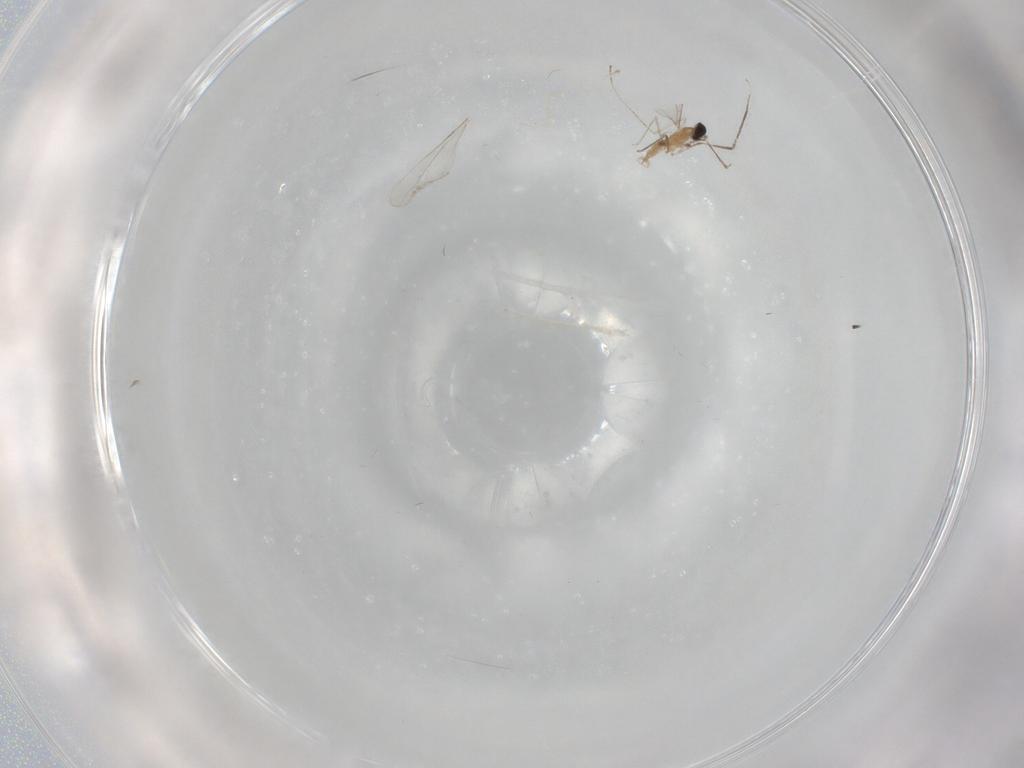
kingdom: Animalia
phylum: Arthropoda
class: Insecta
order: Diptera
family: Cecidomyiidae
